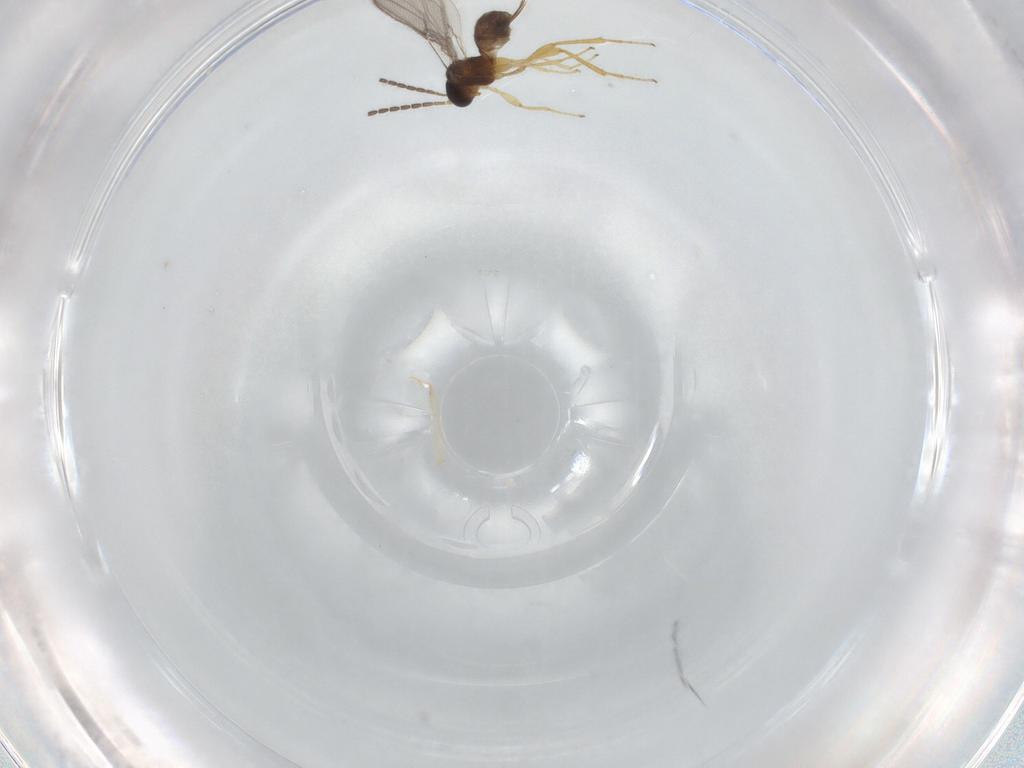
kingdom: Animalia
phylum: Arthropoda
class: Insecta
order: Hymenoptera
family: Braconidae
